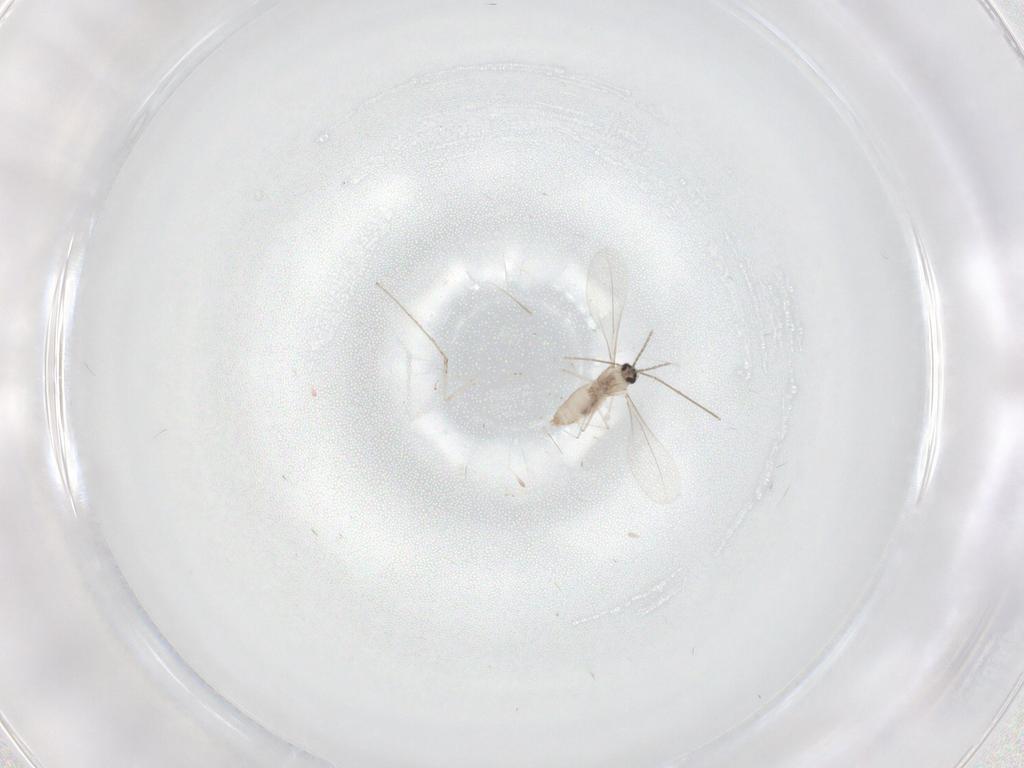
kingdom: Animalia
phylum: Arthropoda
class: Insecta
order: Diptera
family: Cecidomyiidae
